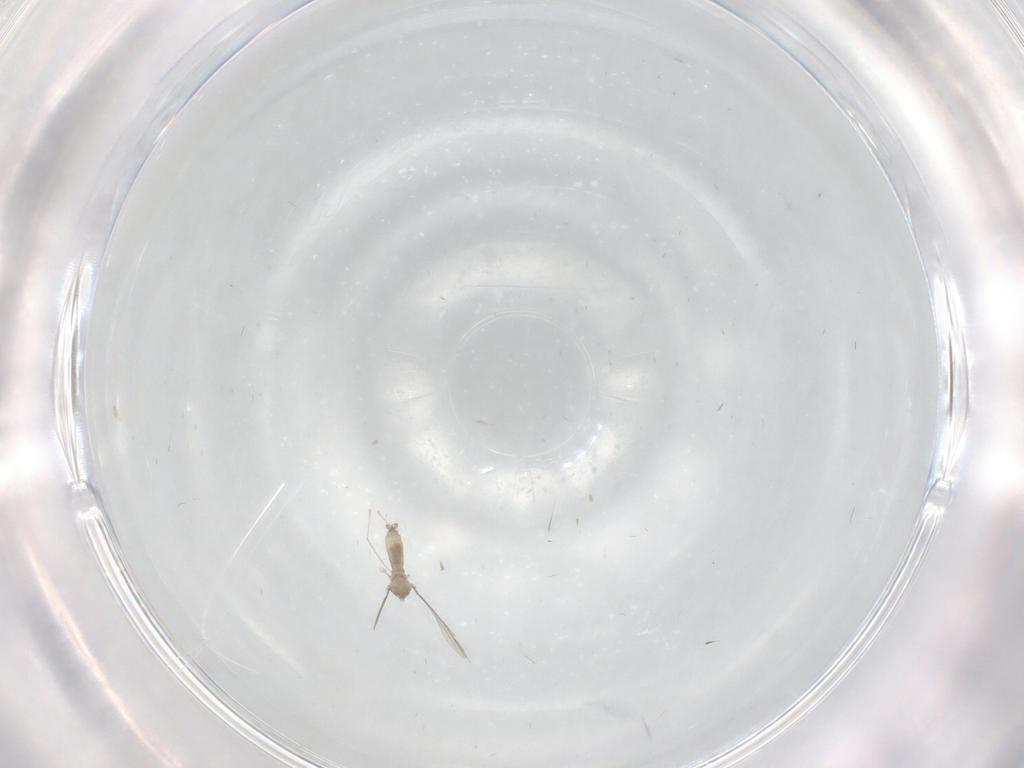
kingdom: Animalia
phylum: Arthropoda
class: Insecta
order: Diptera
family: Cecidomyiidae
